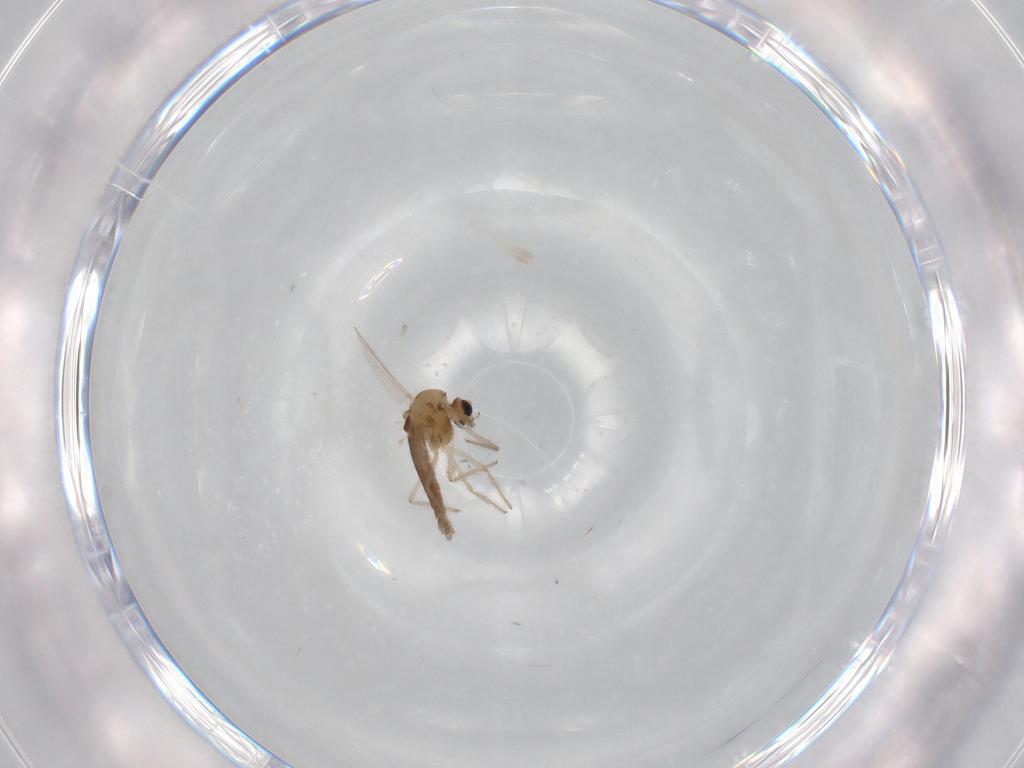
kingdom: Animalia
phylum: Arthropoda
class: Insecta
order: Diptera
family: Chironomidae
